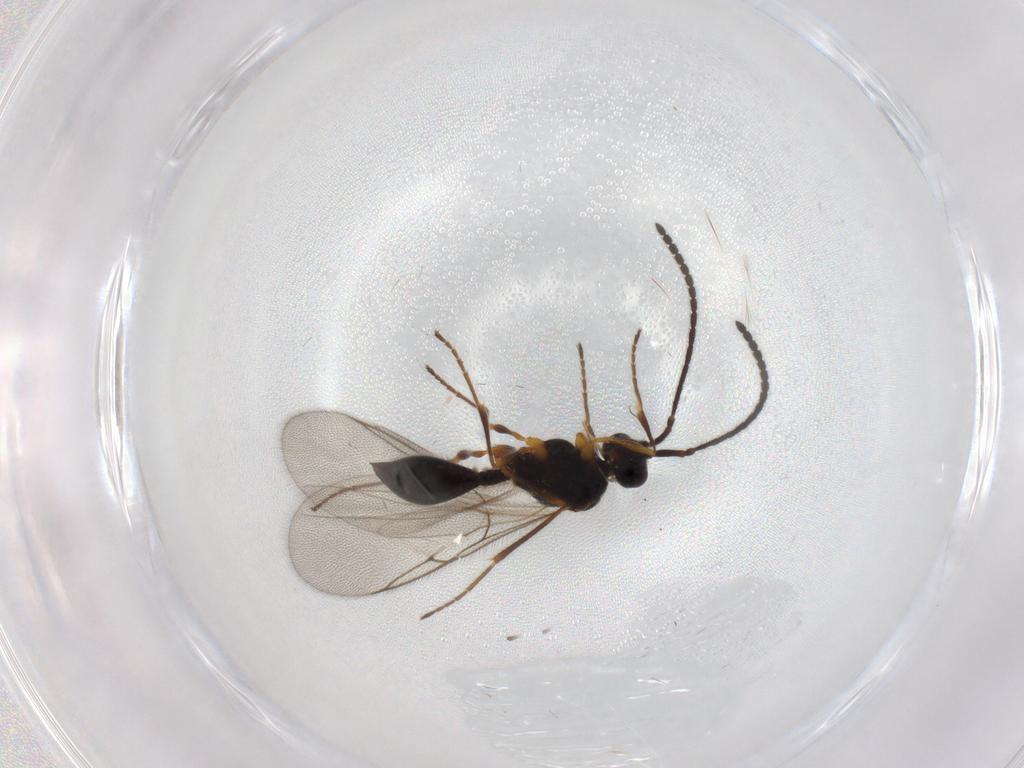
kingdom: Animalia
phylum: Arthropoda
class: Insecta
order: Hymenoptera
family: Diapriidae
